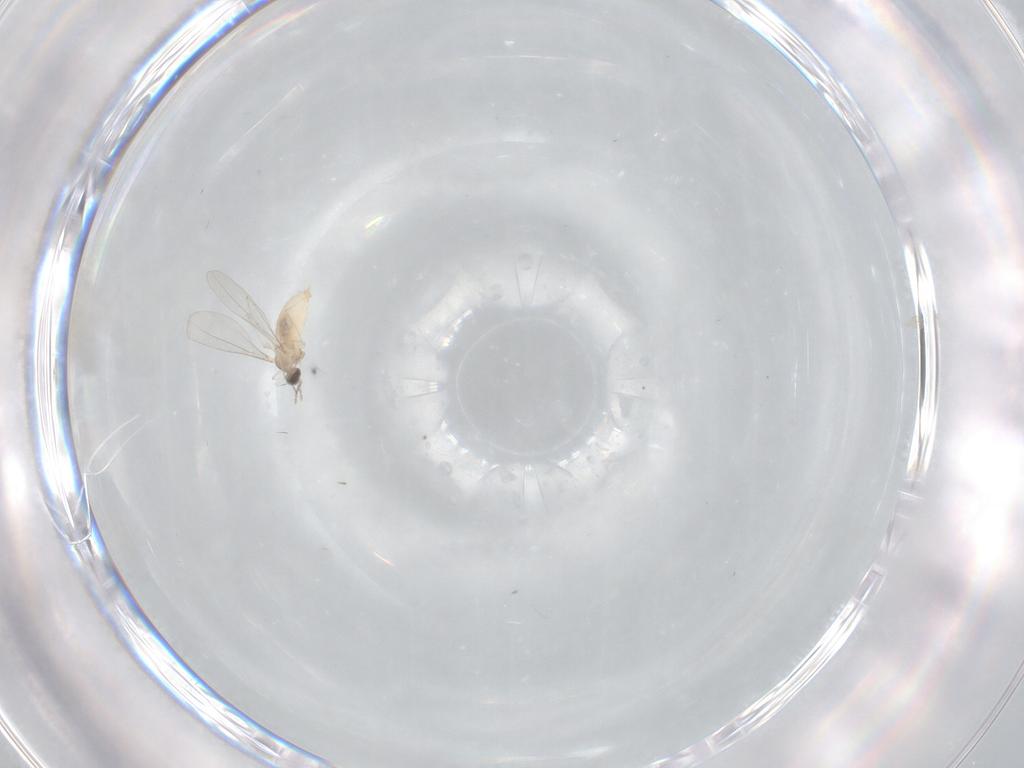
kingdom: Animalia
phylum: Arthropoda
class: Insecta
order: Diptera
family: Cecidomyiidae
